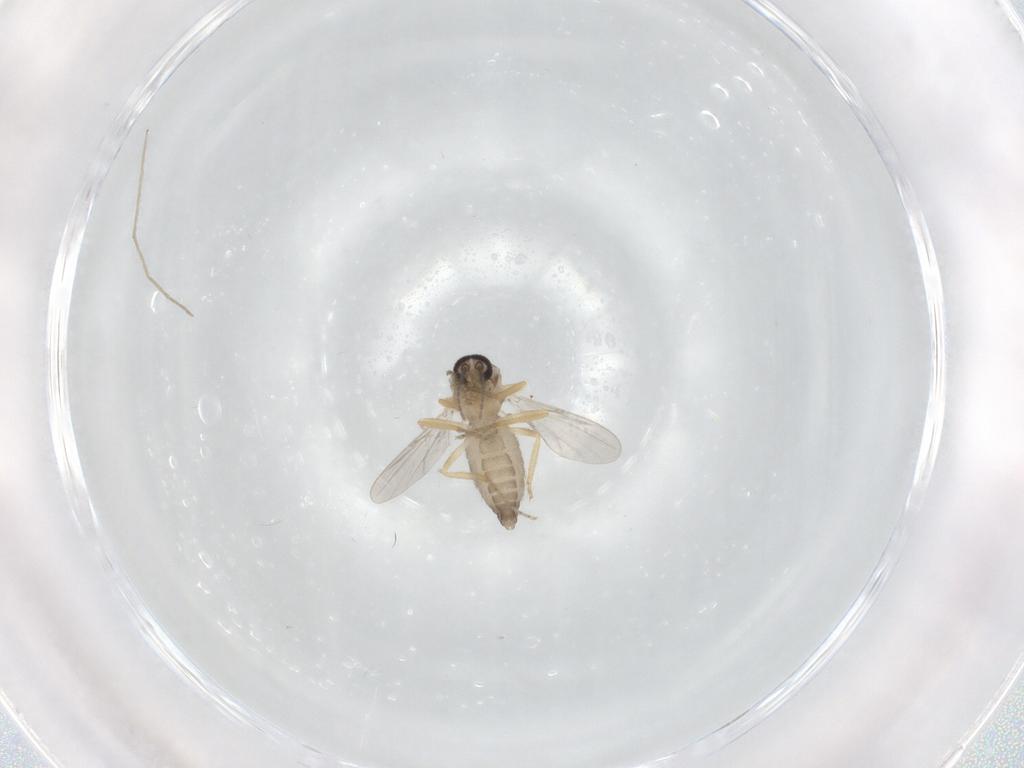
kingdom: Animalia
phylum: Arthropoda
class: Insecta
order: Diptera
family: Ceratopogonidae
